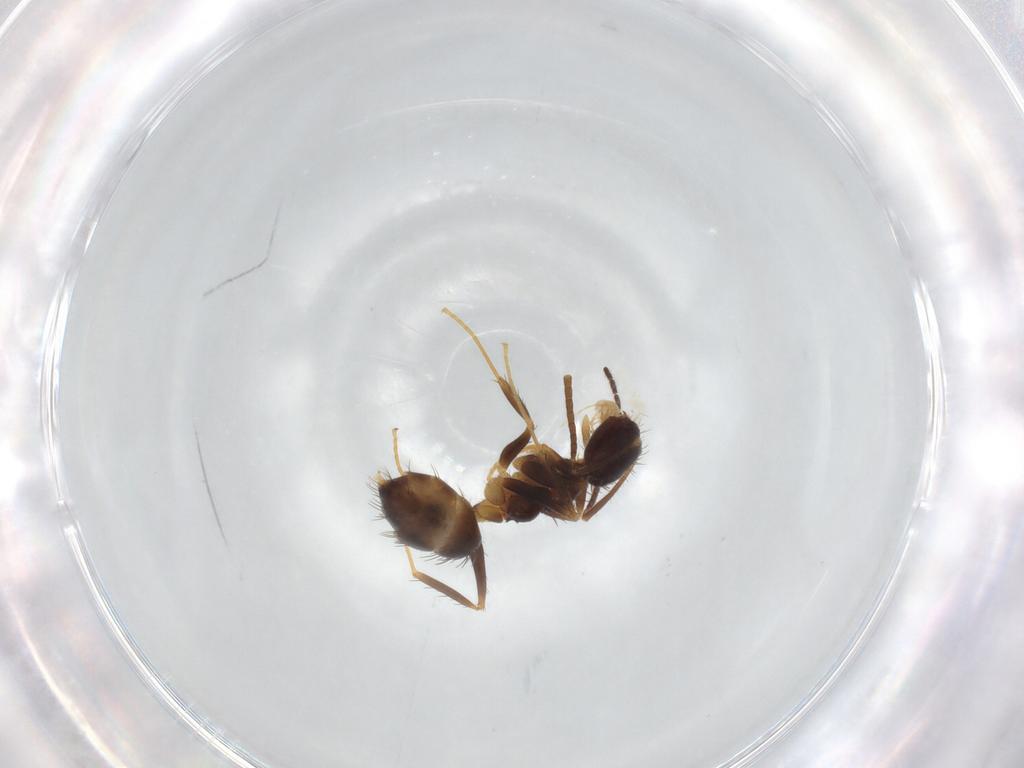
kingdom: Animalia
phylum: Arthropoda
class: Insecta
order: Hymenoptera
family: Formicidae
